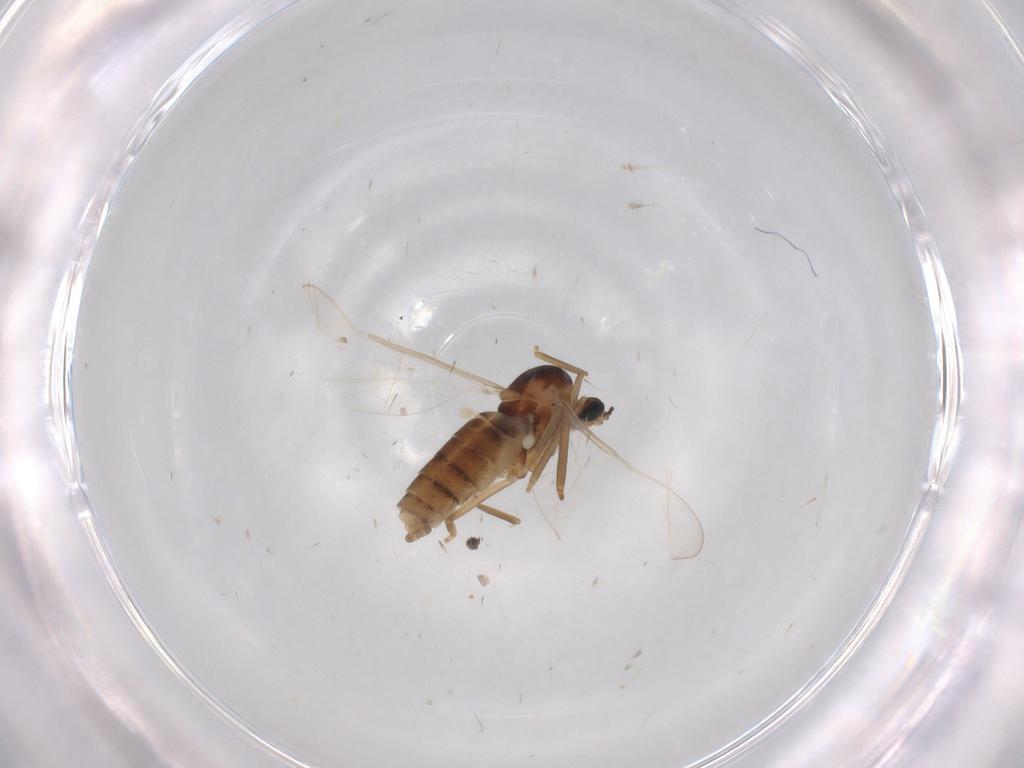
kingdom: Animalia
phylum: Arthropoda
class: Insecta
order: Diptera
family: Cecidomyiidae
